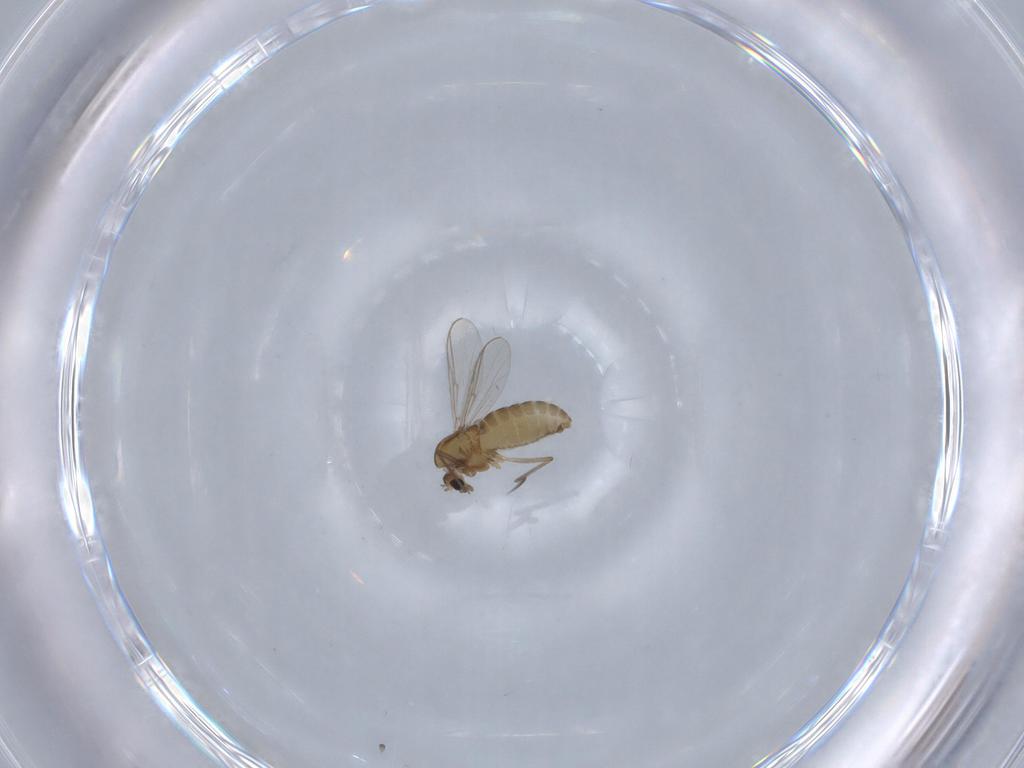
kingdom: Animalia
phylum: Arthropoda
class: Insecta
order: Diptera
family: Chironomidae
